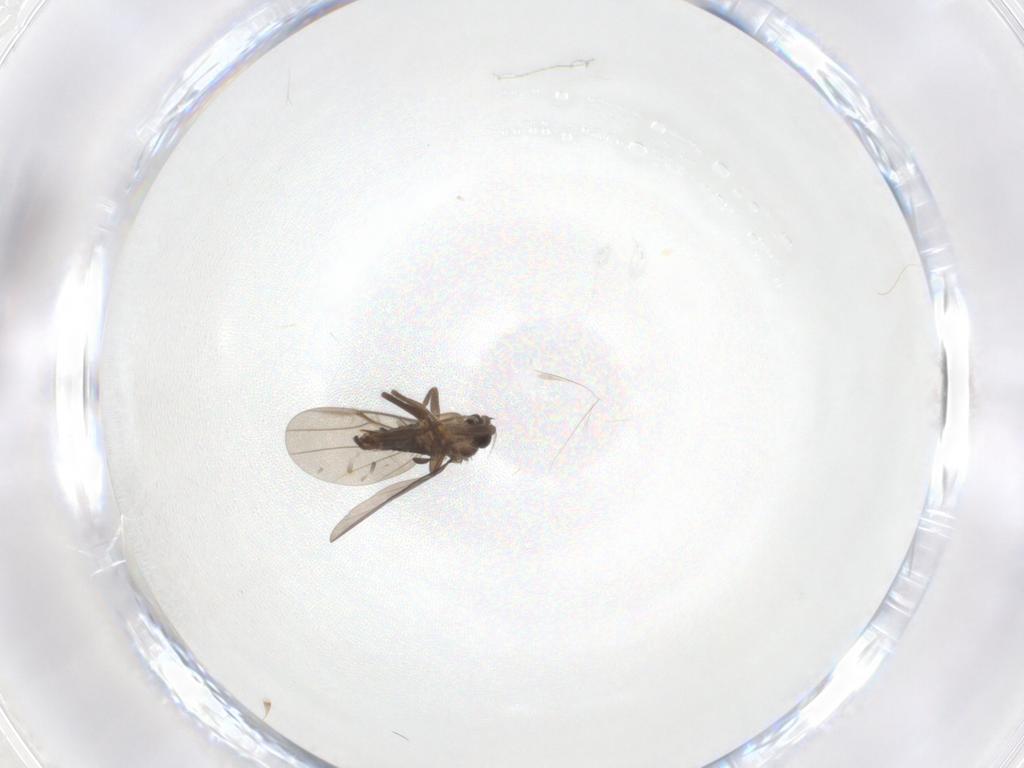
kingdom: Animalia
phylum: Arthropoda
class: Insecta
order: Diptera
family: Phoridae
